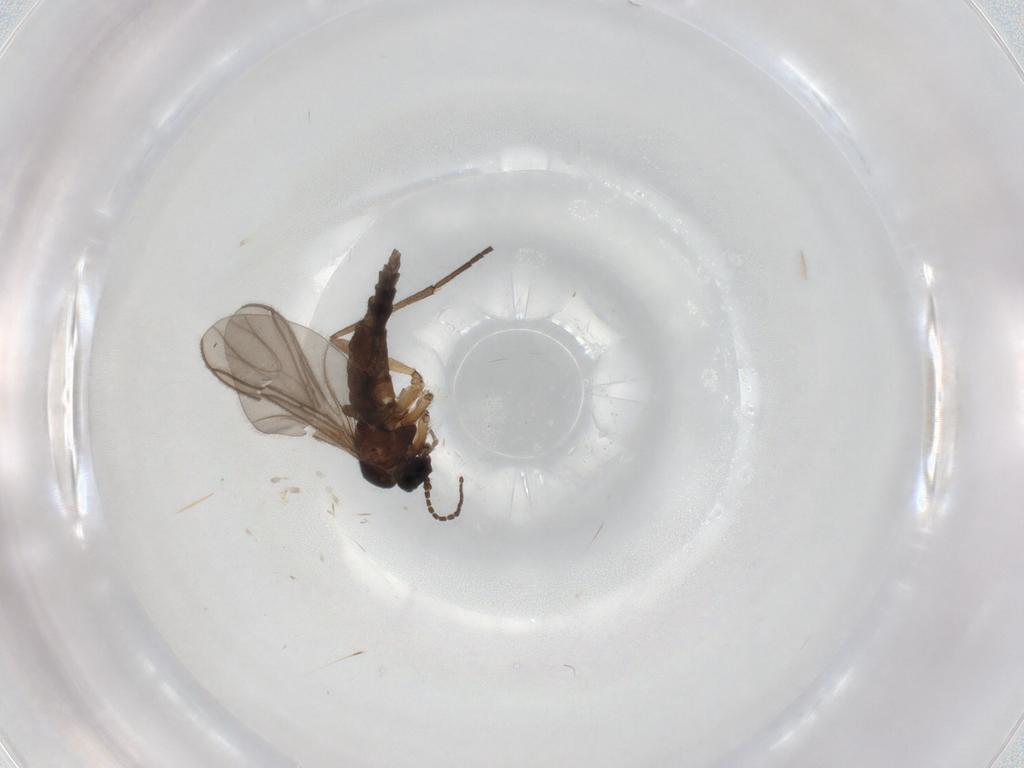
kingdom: Animalia
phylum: Arthropoda
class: Insecta
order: Diptera
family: Sciaridae
